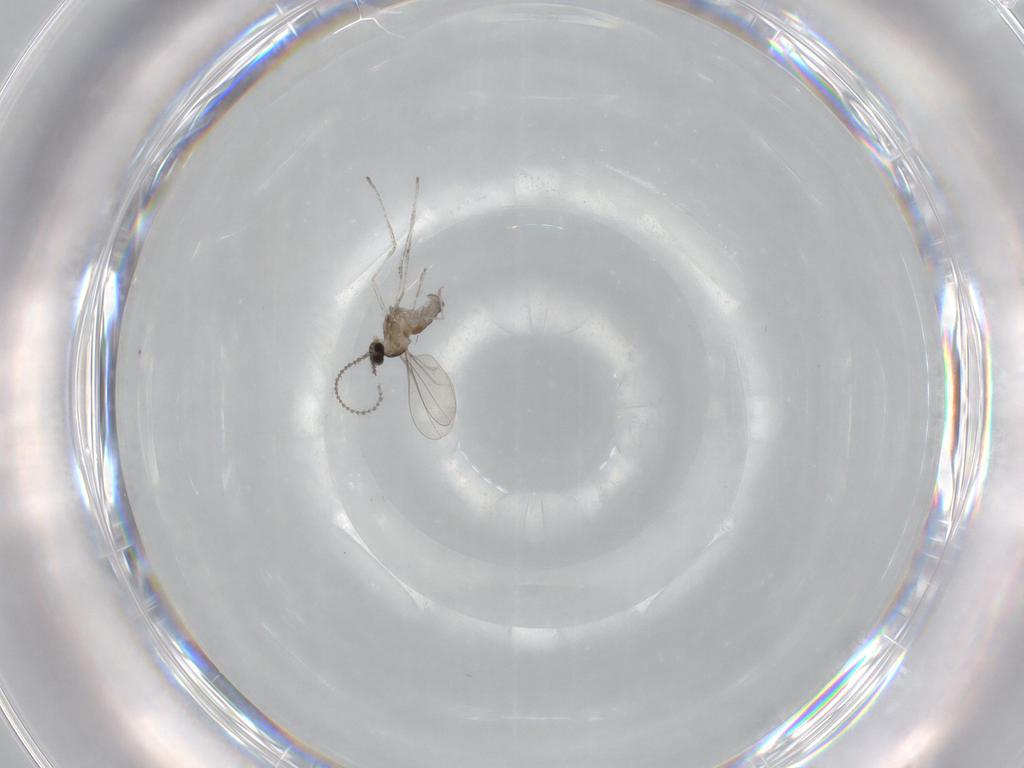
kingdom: Animalia
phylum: Arthropoda
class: Insecta
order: Diptera
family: Cecidomyiidae
